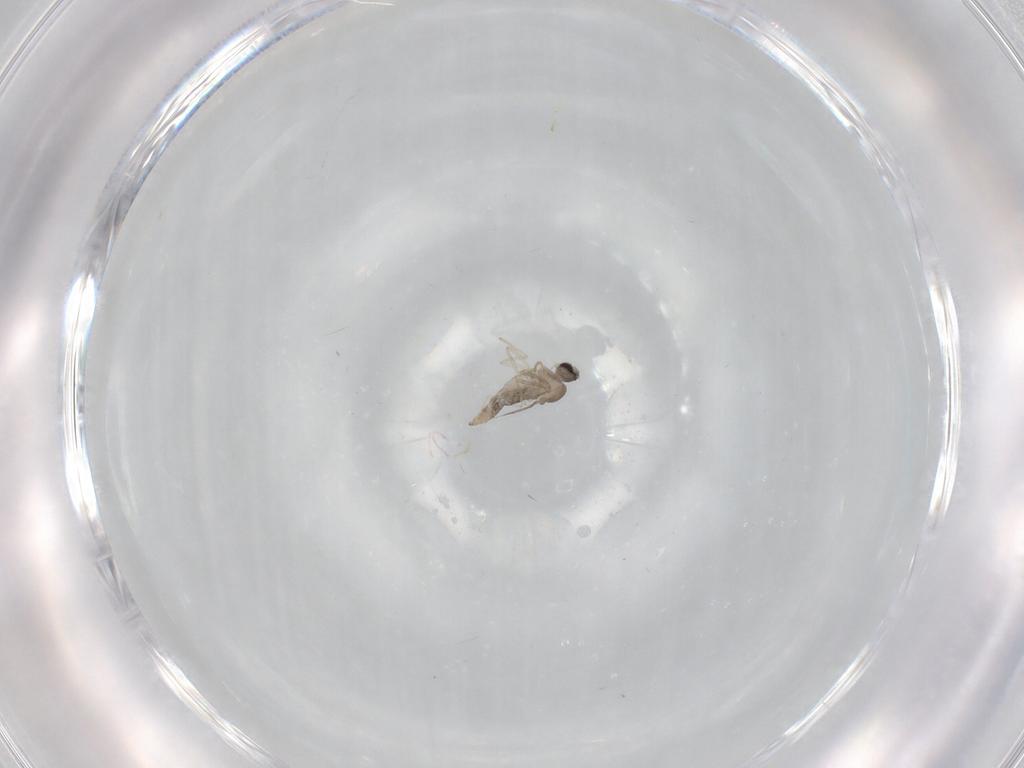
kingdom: Animalia
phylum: Arthropoda
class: Insecta
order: Diptera
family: Cecidomyiidae
